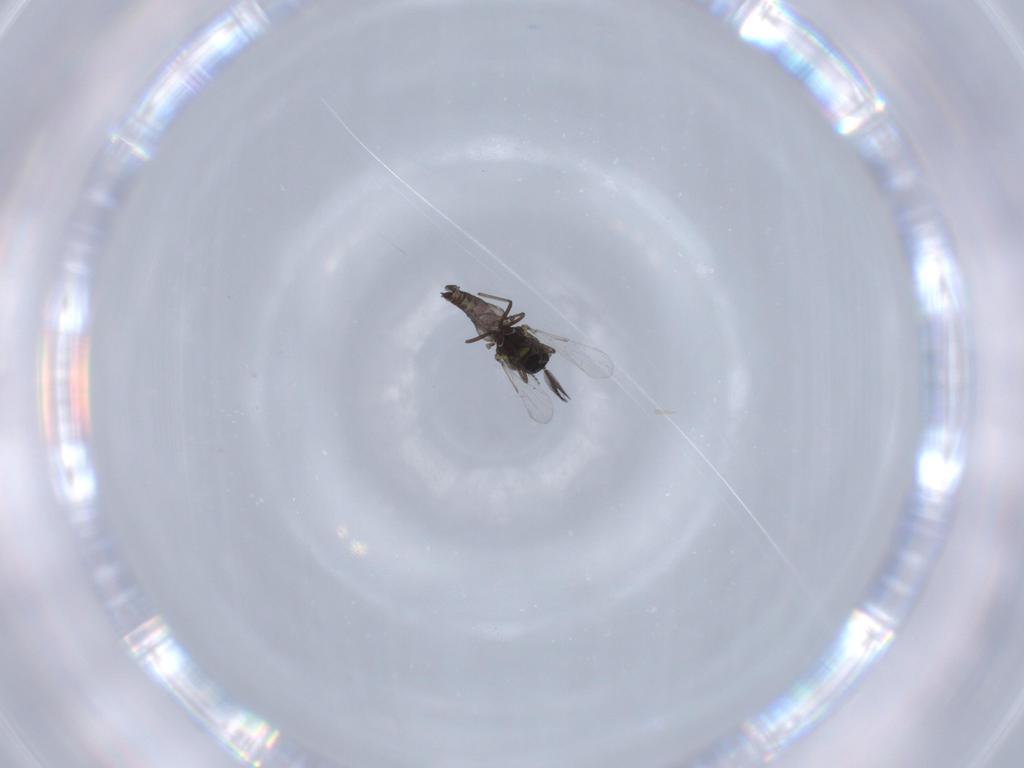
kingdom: Animalia
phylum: Arthropoda
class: Insecta
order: Diptera
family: Ceratopogonidae
